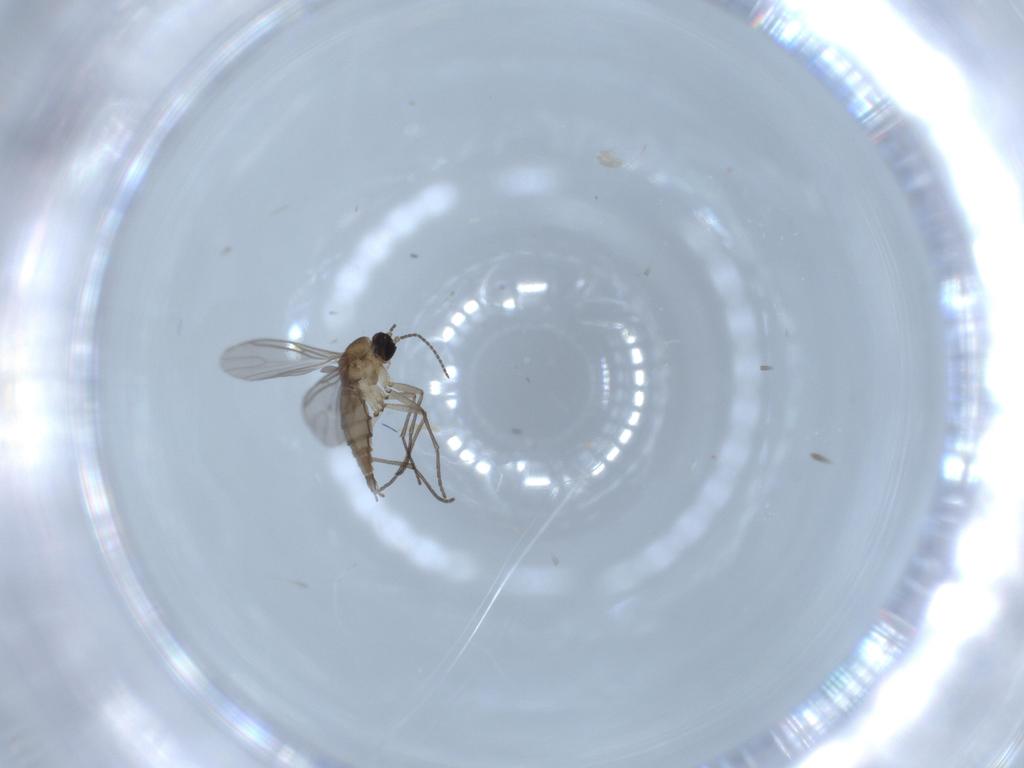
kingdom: Animalia
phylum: Arthropoda
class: Insecta
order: Diptera
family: Sciaridae
